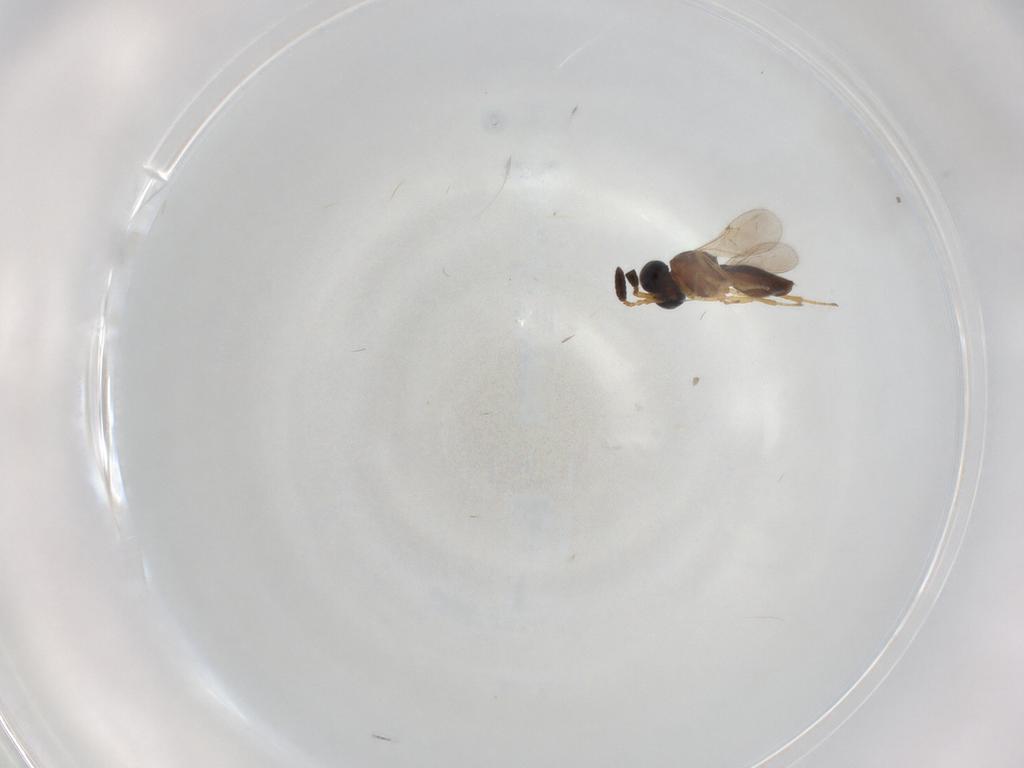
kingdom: Animalia
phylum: Arthropoda
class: Insecta
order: Hymenoptera
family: Scelionidae
